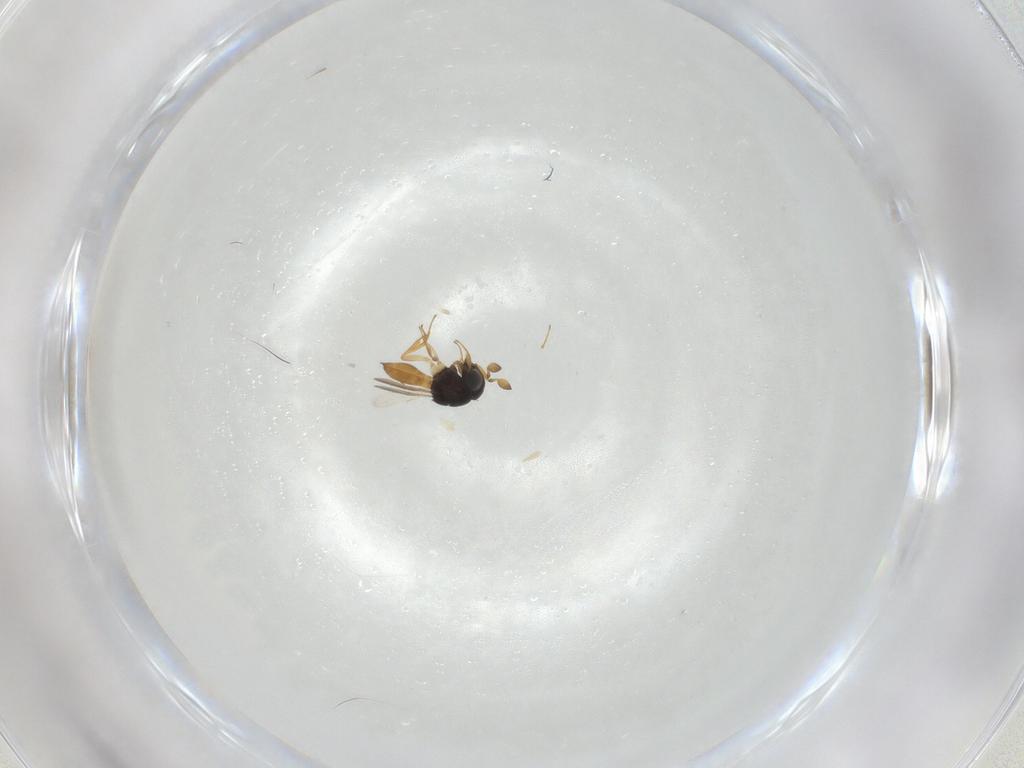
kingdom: Animalia
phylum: Arthropoda
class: Insecta
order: Hymenoptera
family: Scelionidae
